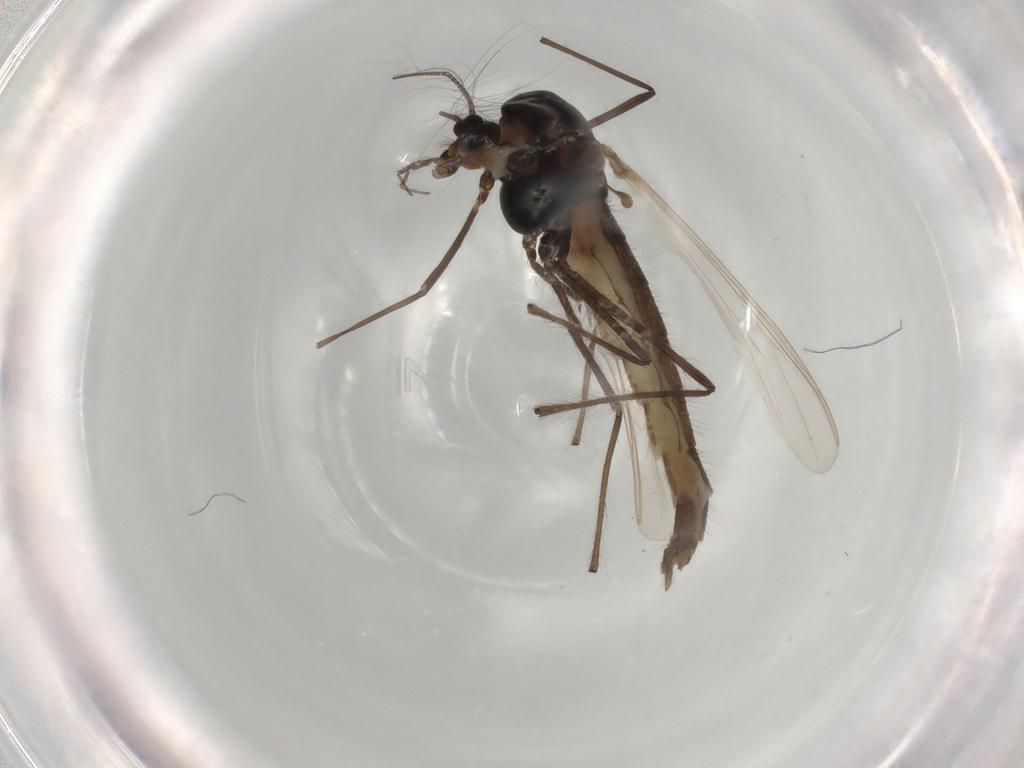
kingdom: Animalia
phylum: Arthropoda
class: Insecta
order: Diptera
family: Chironomidae
